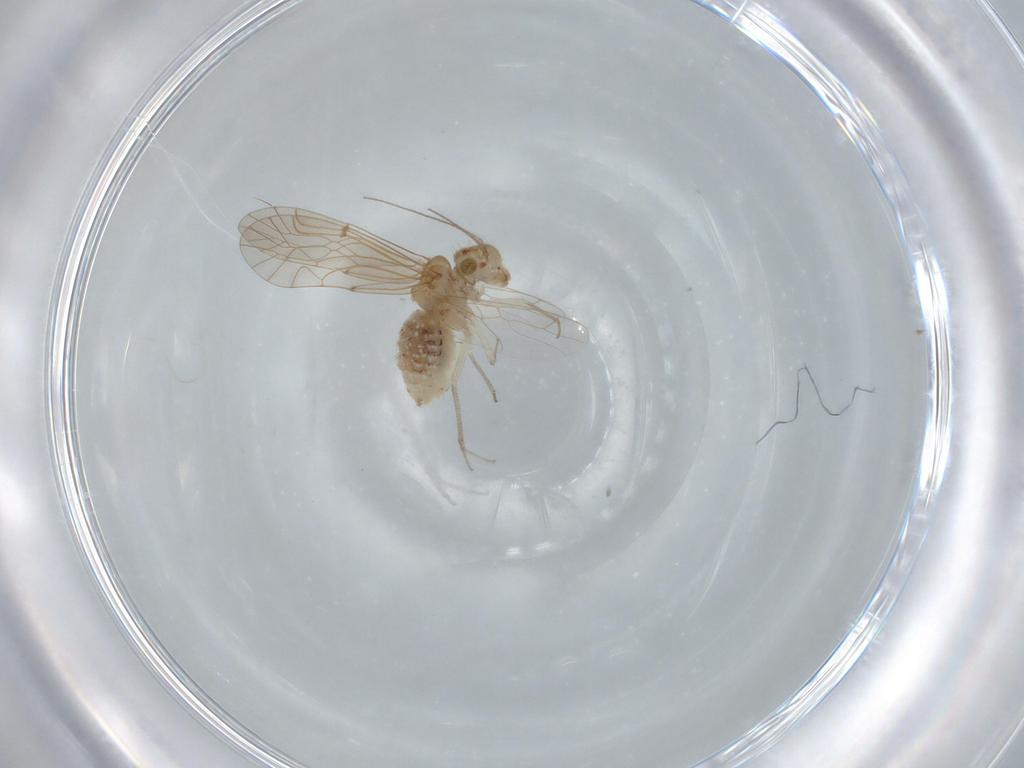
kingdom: Animalia
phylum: Arthropoda
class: Insecta
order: Psocodea
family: Lachesillidae
